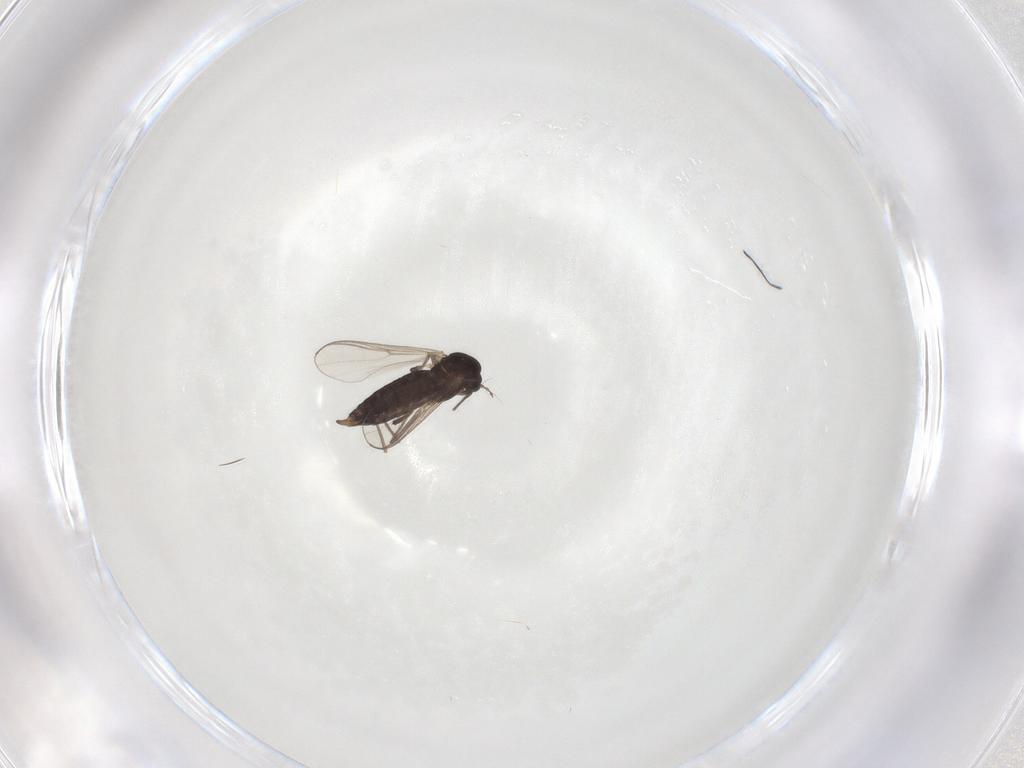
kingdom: Animalia
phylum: Arthropoda
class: Insecta
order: Diptera
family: Chironomidae
